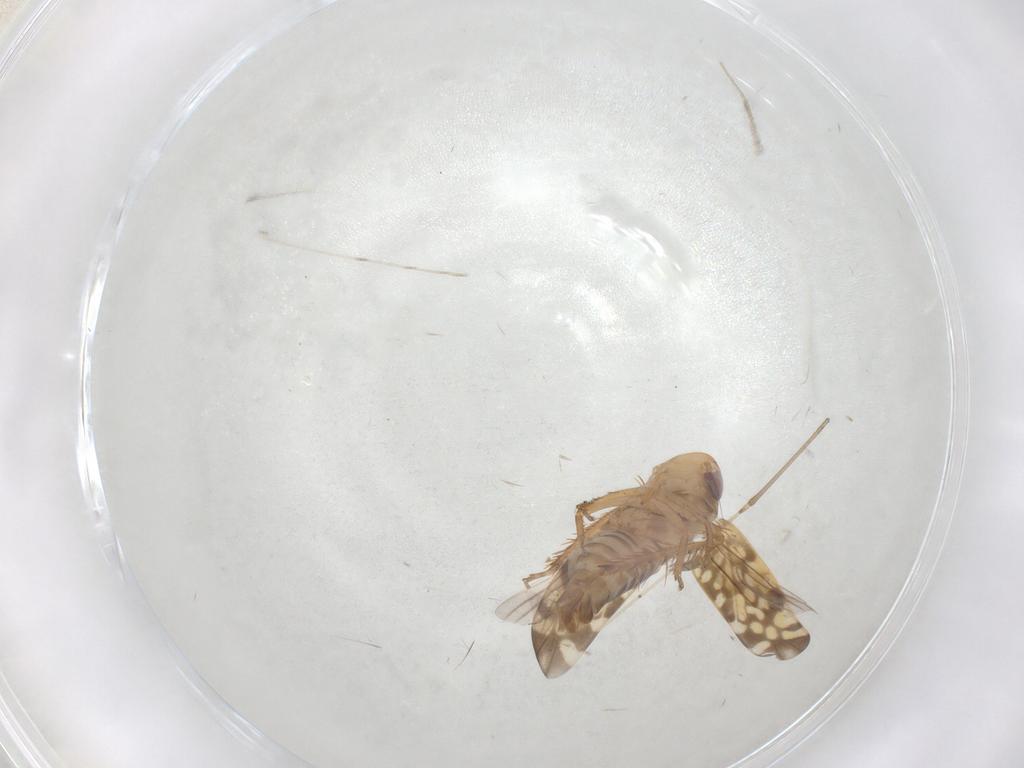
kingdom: Animalia
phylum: Arthropoda
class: Insecta
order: Hemiptera
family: Cicadellidae
